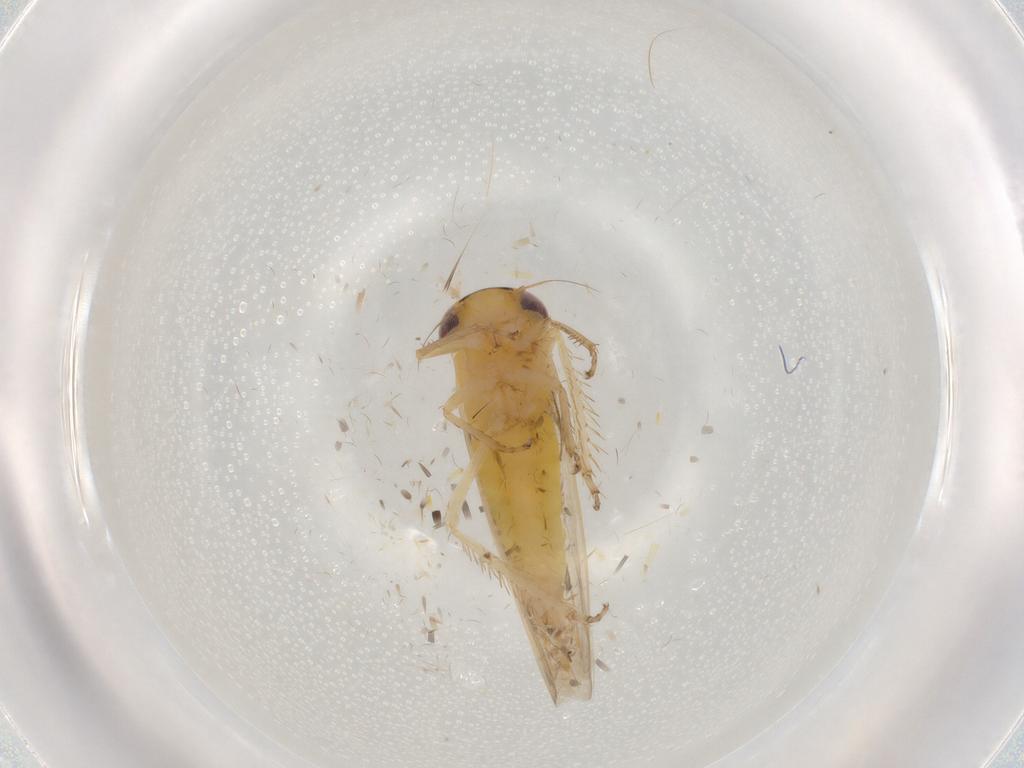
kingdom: Animalia
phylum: Arthropoda
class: Insecta
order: Hemiptera
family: Cicadellidae
